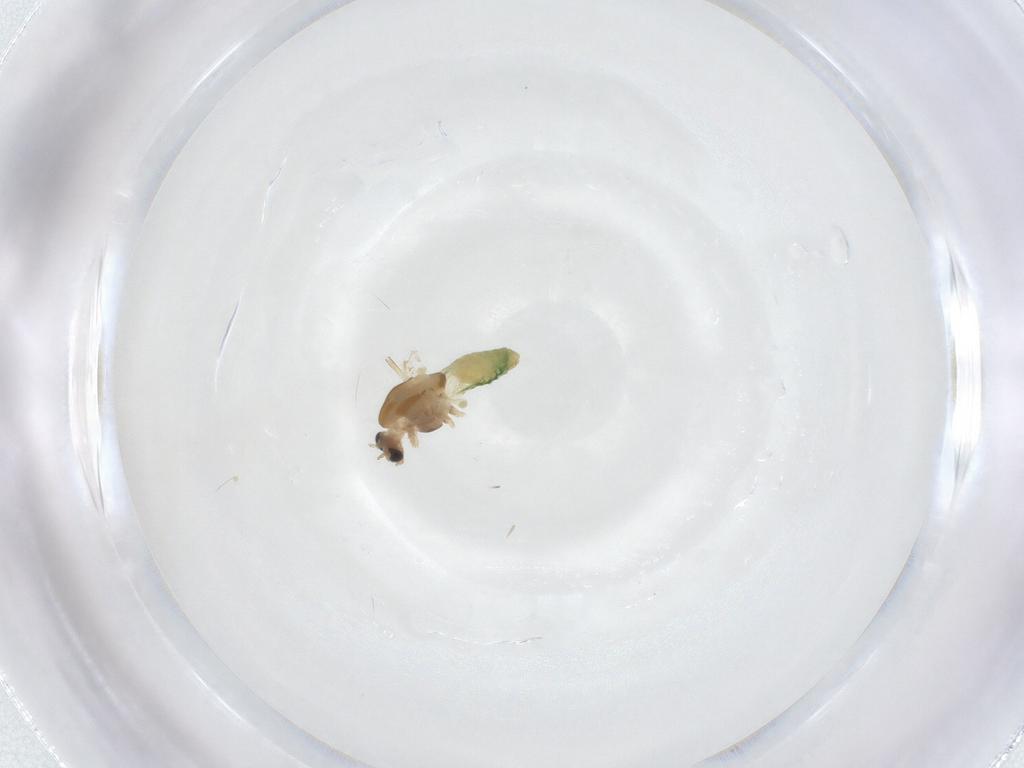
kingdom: Animalia
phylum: Arthropoda
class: Insecta
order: Diptera
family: Chironomidae
